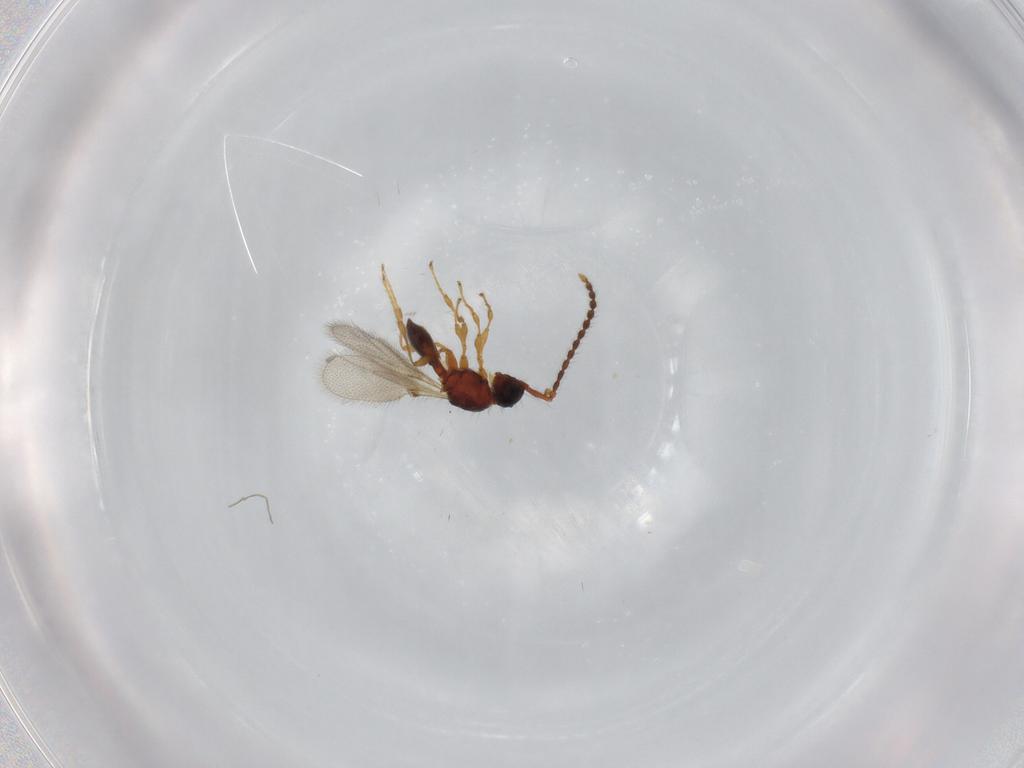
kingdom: Animalia
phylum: Arthropoda
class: Insecta
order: Hymenoptera
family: Diapriidae
